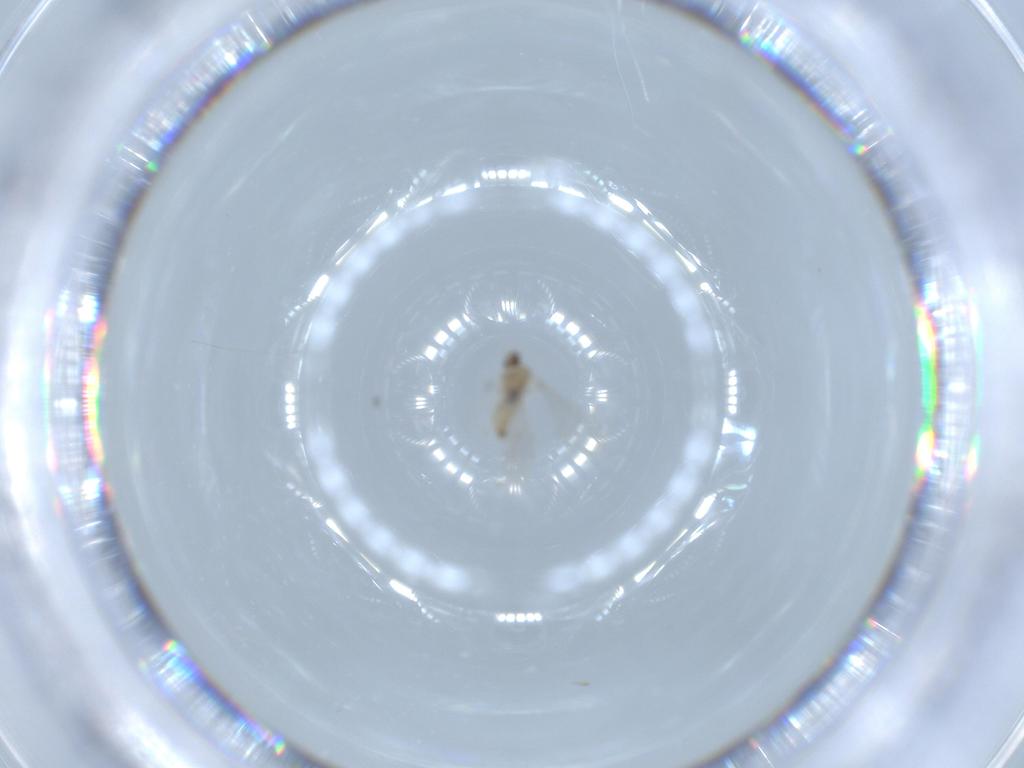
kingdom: Animalia
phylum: Arthropoda
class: Insecta
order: Diptera
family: Cecidomyiidae
